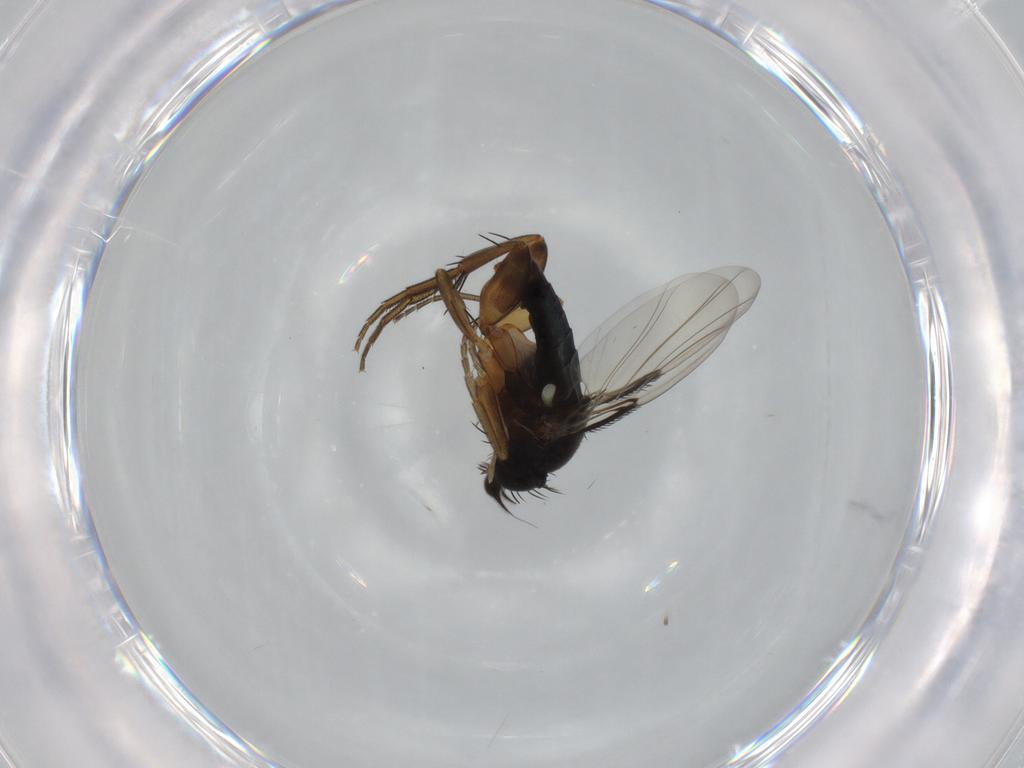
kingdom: Animalia
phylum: Arthropoda
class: Insecta
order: Diptera
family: Phoridae
